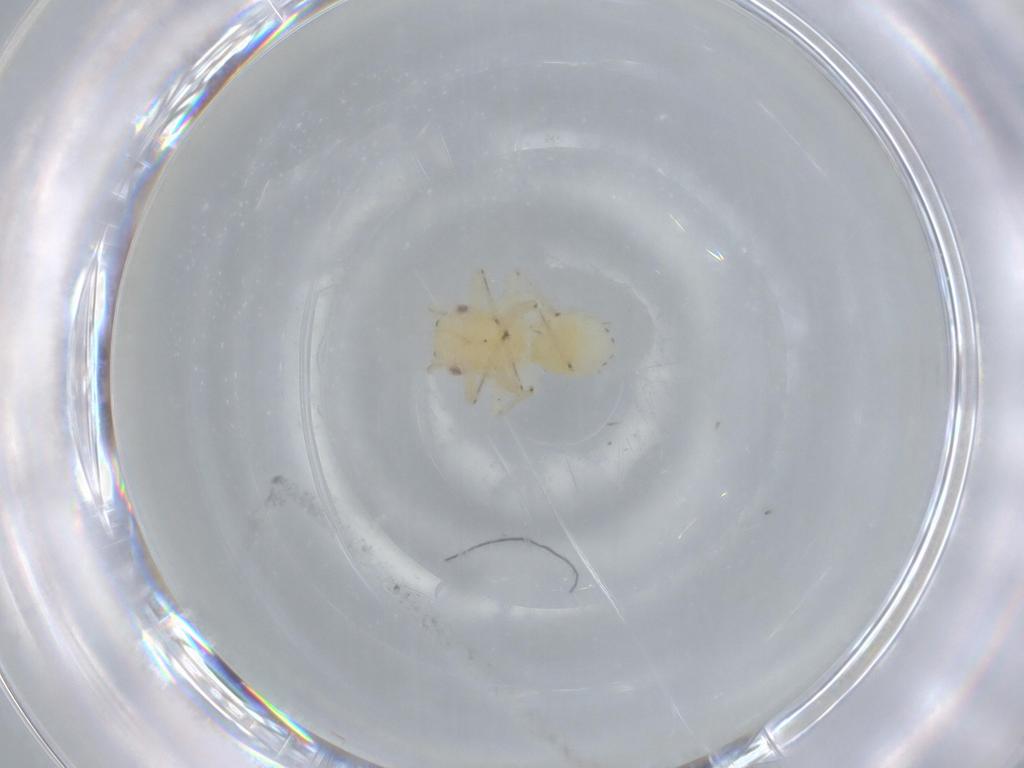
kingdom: Animalia
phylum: Arthropoda
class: Insecta
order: Hemiptera
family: Psyllidae
